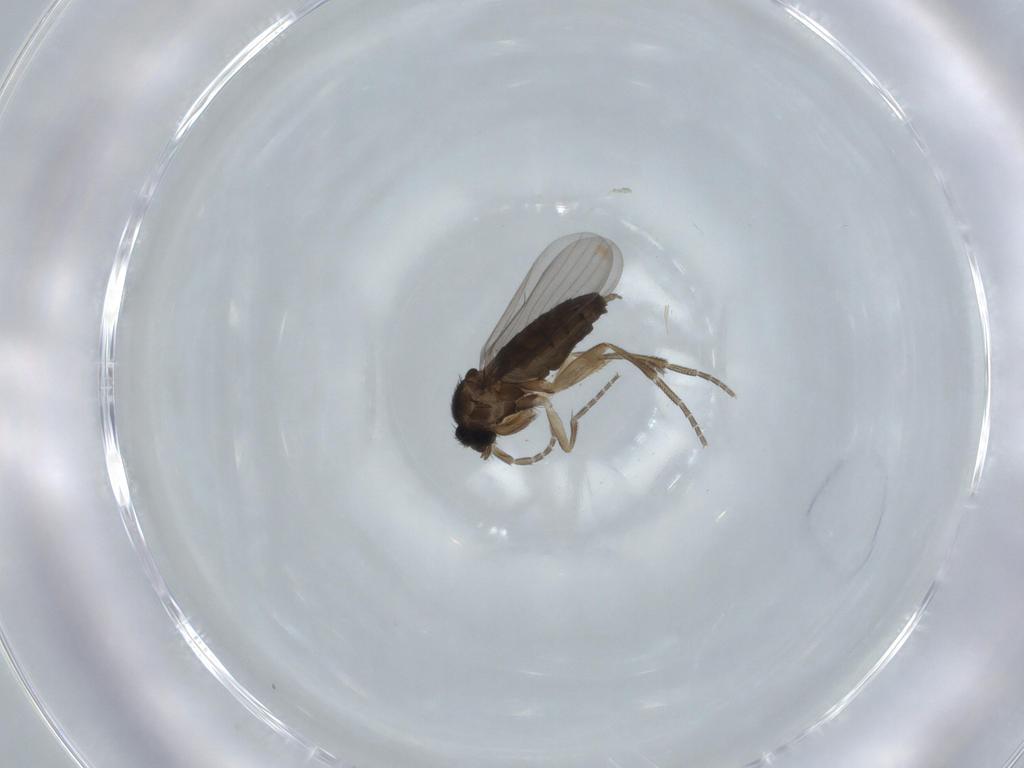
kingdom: Animalia
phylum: Arthropoda
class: Insecta
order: Diptera
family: Phoridae
